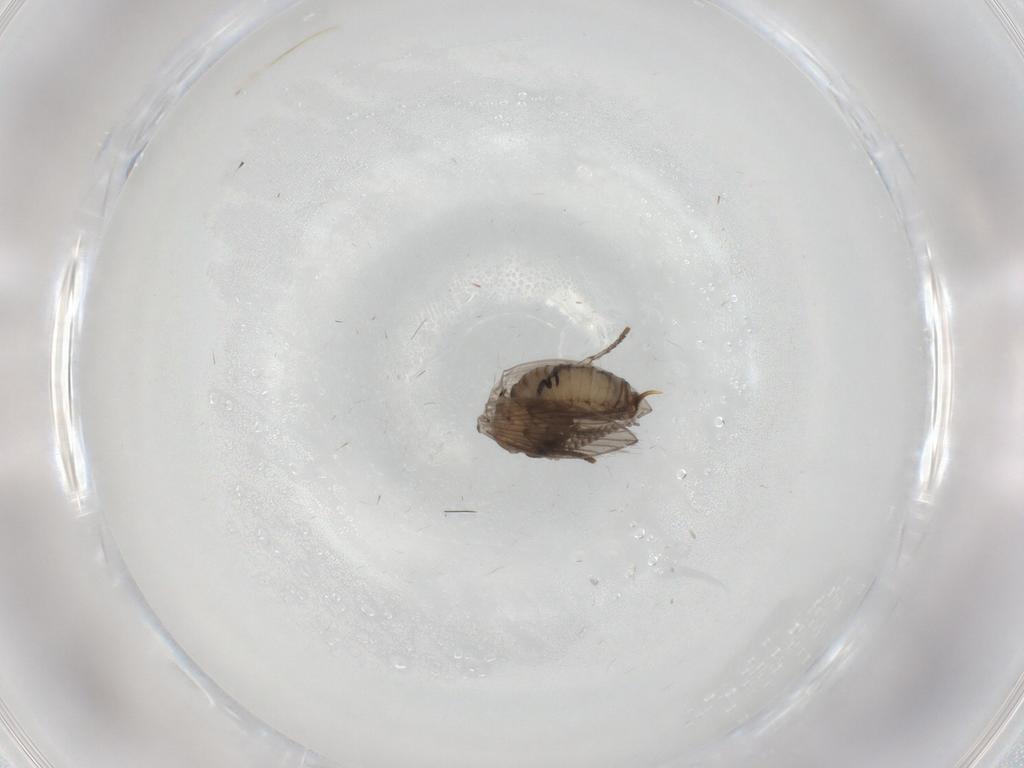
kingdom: Animalia
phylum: Arthropoda
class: Insecta
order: Diptera
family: Psychodidae
